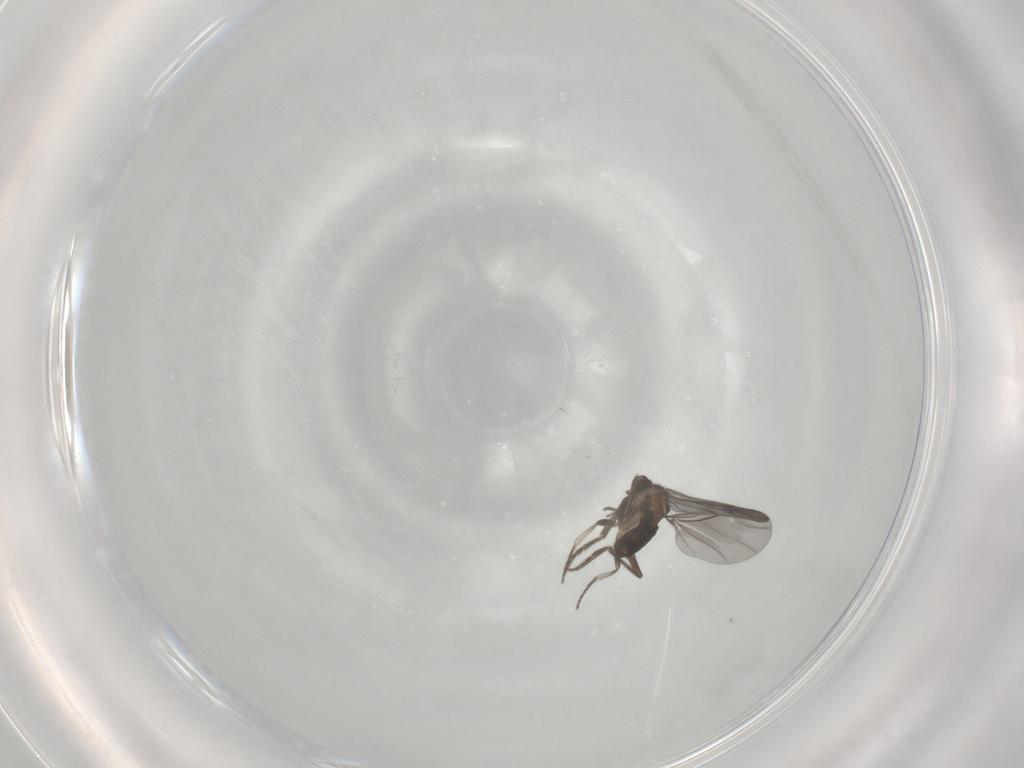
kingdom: Animalia
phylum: Arthropoda
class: Insecta
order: Diptera
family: Phoridae
